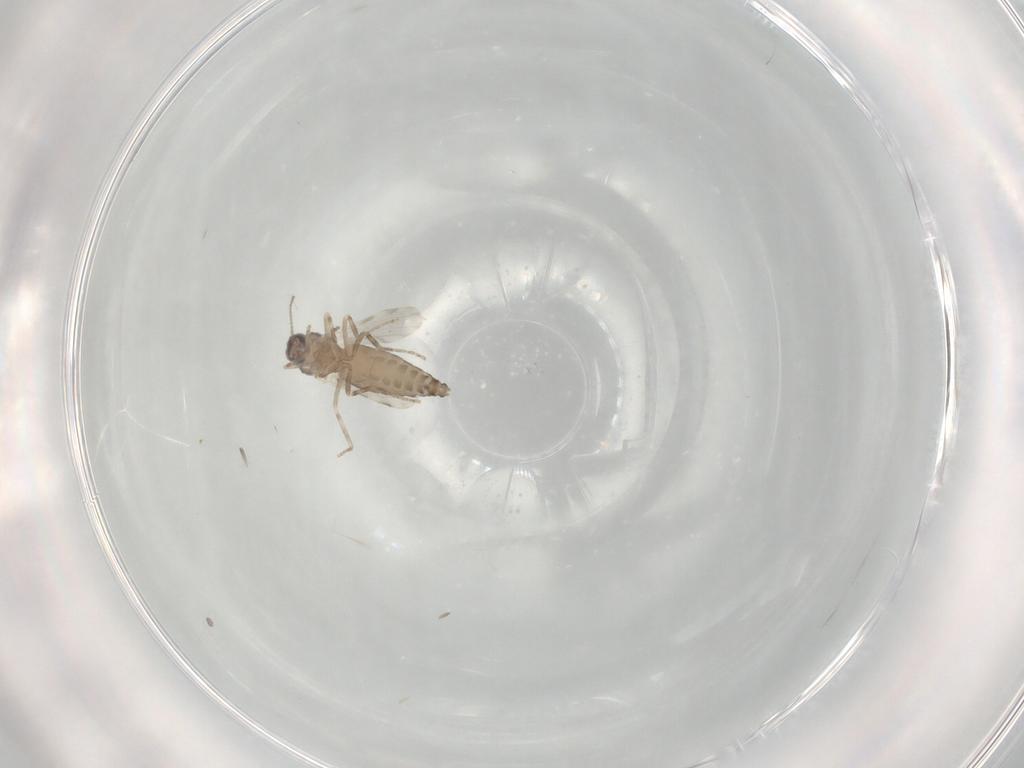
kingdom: Animalia
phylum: Arthropoda
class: Insecta
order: Diptera
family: Ceratopogonidae
